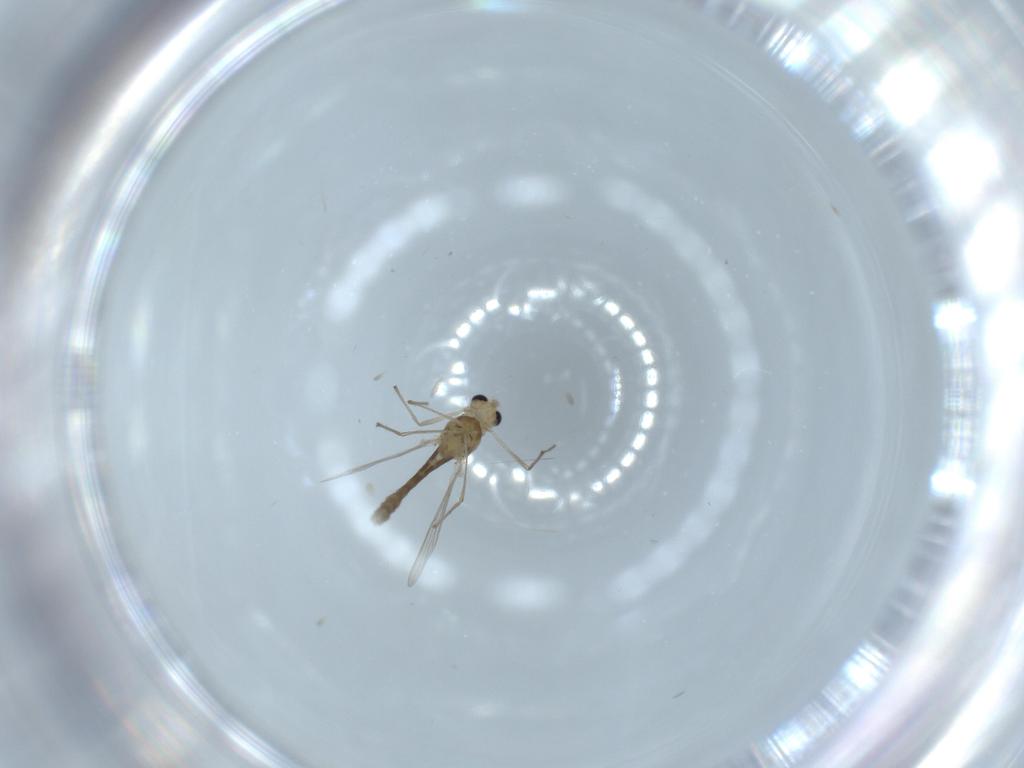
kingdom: Animalia
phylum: Arthropoda
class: Insecta
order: Diptera
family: Chironomidae
